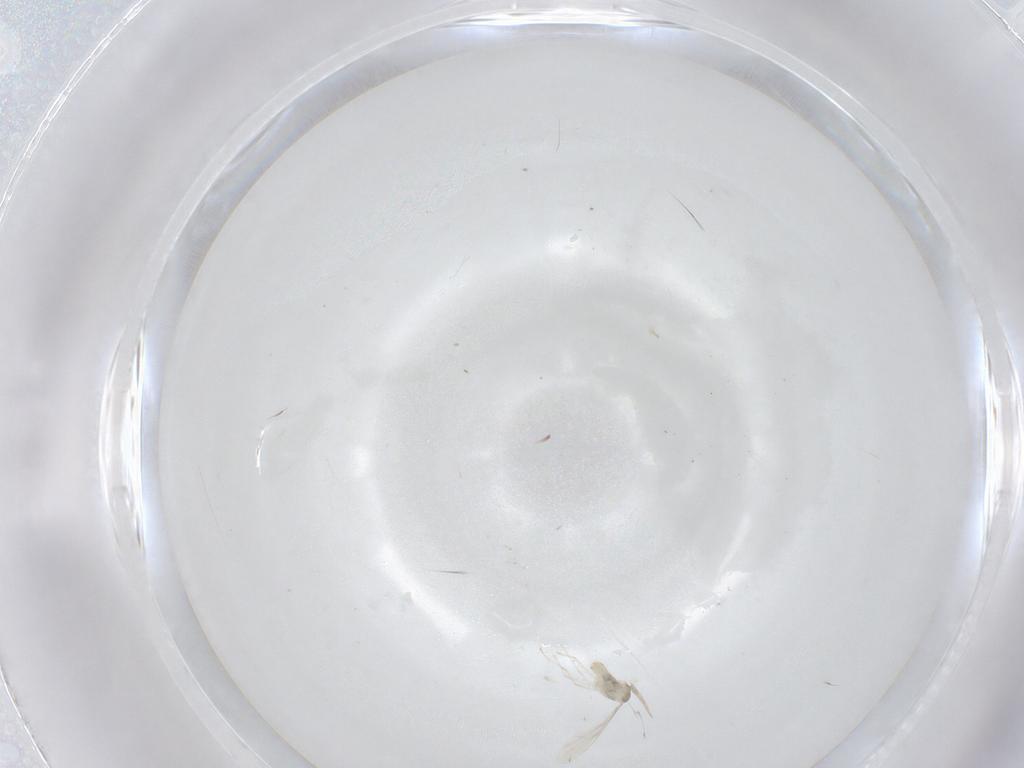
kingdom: Animalia
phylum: Arthropoda
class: Insecta
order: Diptera
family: Cecidomyiidae
